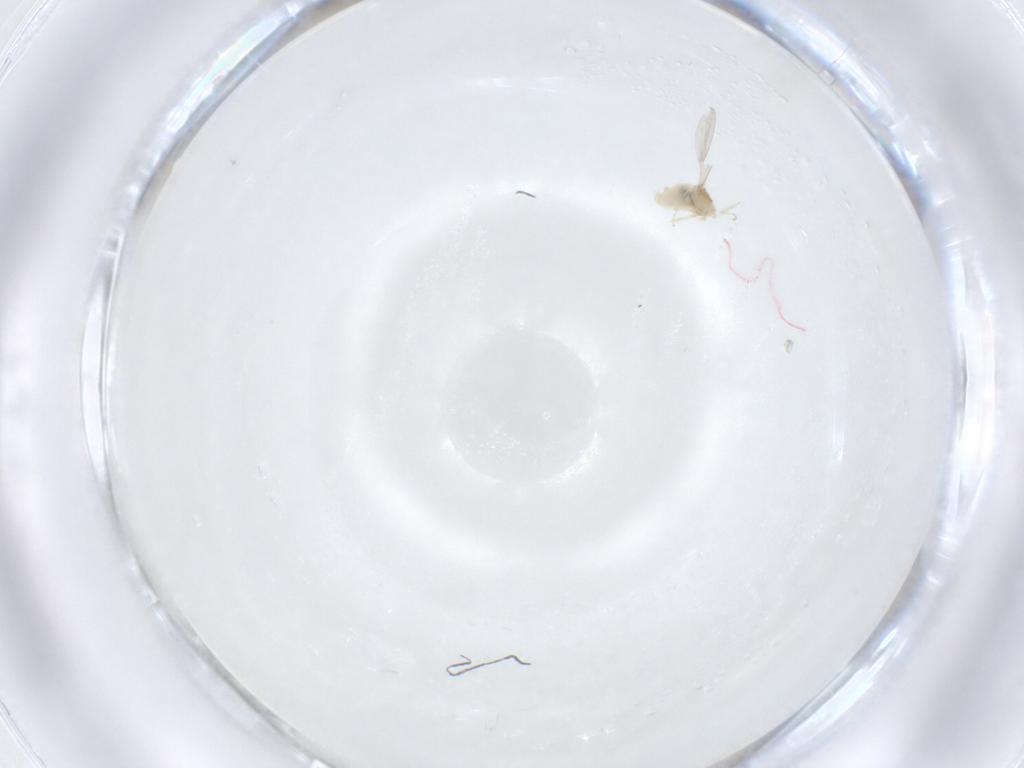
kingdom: Animalia
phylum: Arthropoda
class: Insecta
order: Diptera
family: Cecidomyiidae
